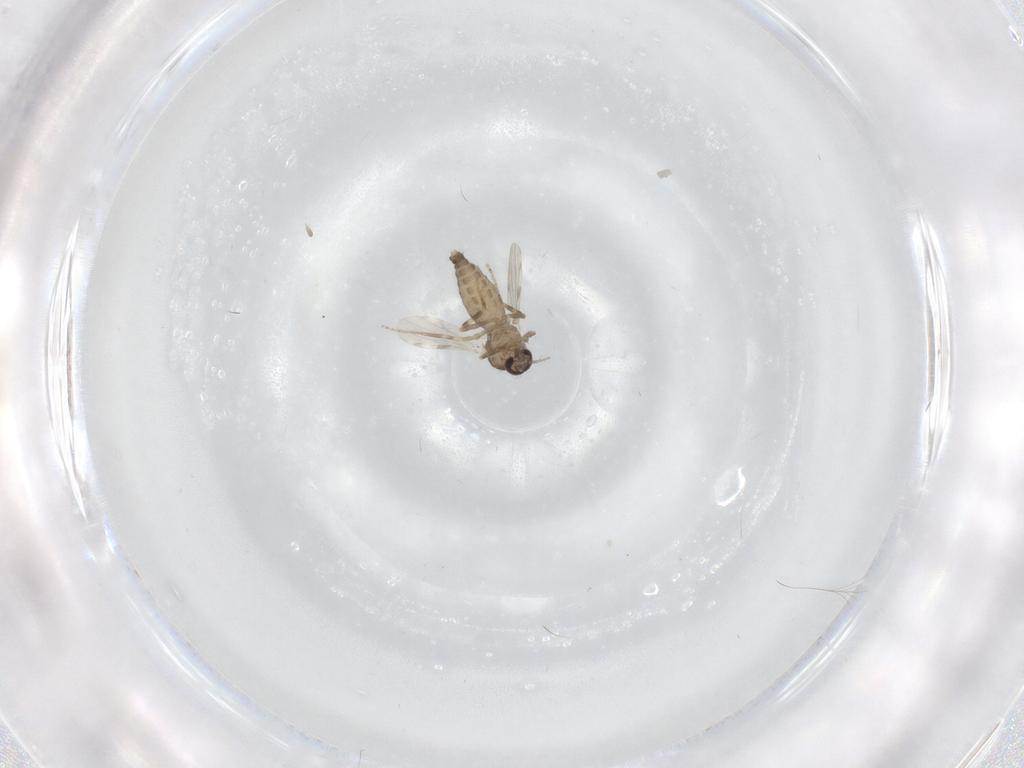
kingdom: Animalia
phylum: Arthropoda
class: Insecta
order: Diptera
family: Ceratopogonidae
